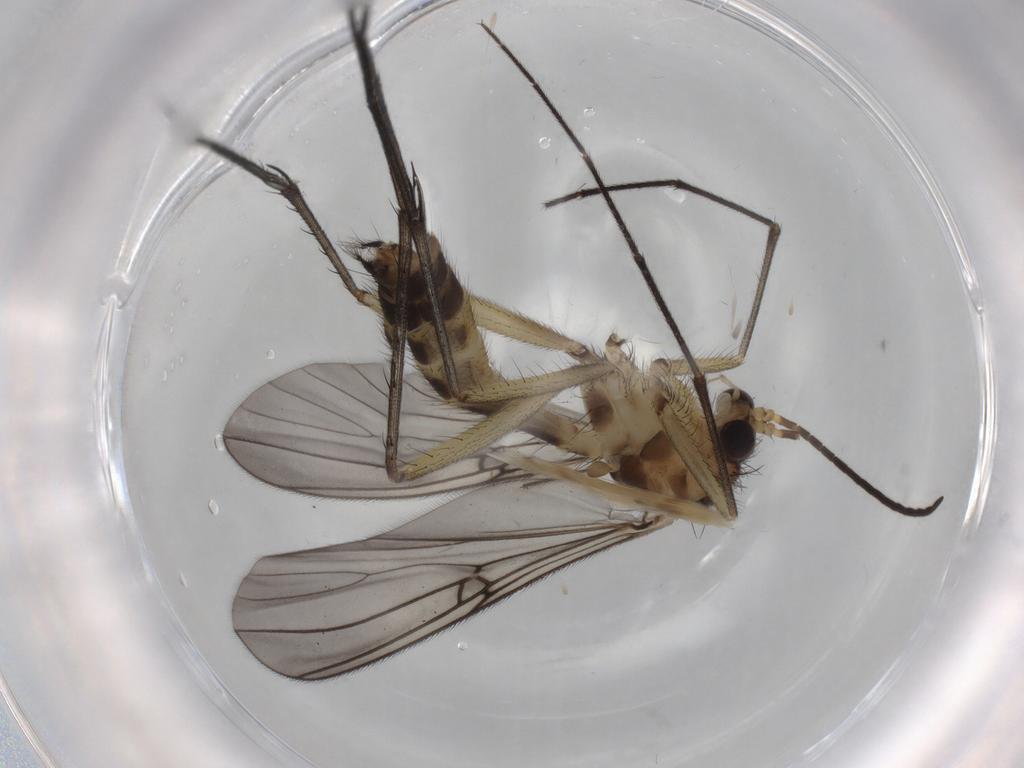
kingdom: Animalia
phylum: Arthropoda
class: Insecta
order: Diptera
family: Mycetophilidae
